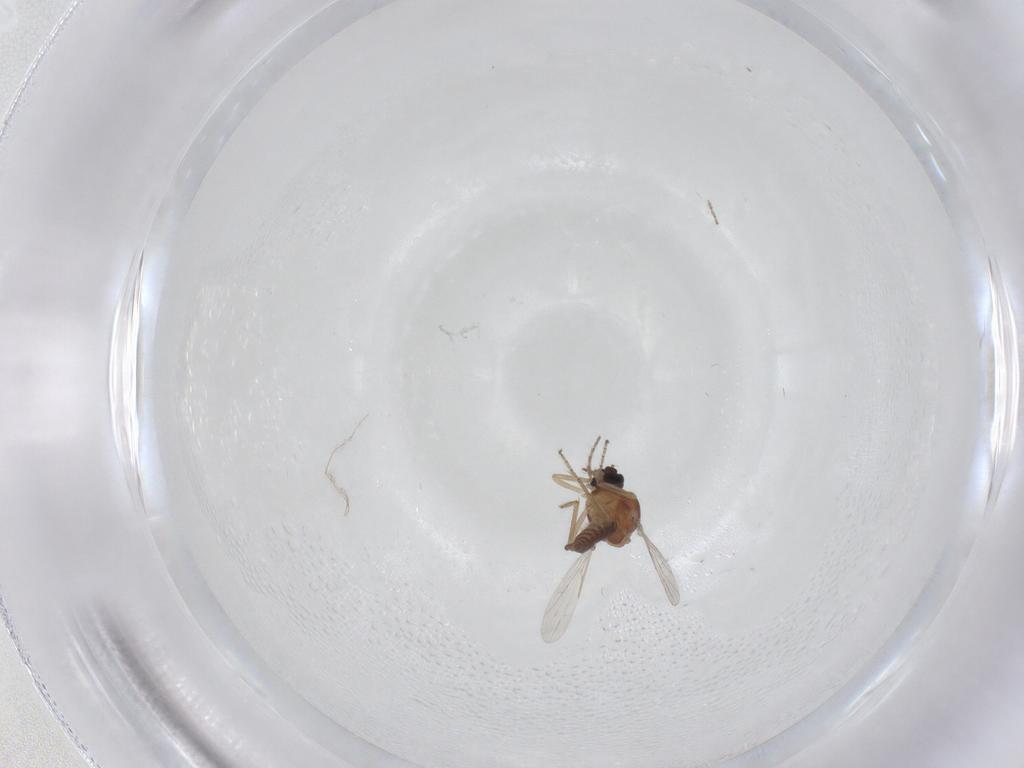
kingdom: Animalia
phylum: Arthropoda
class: Insecta
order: Diptera
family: Ceratopogonidae
